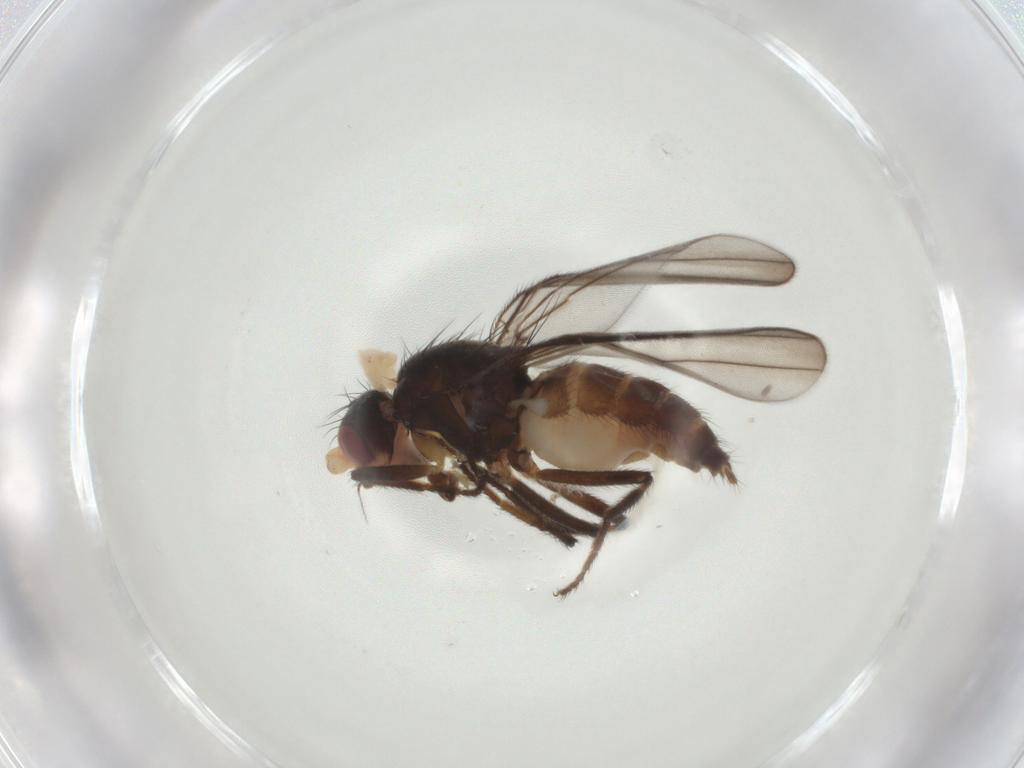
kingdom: Animalia
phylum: Arthropoda
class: Insecta
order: Diptera
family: Chloropidae
